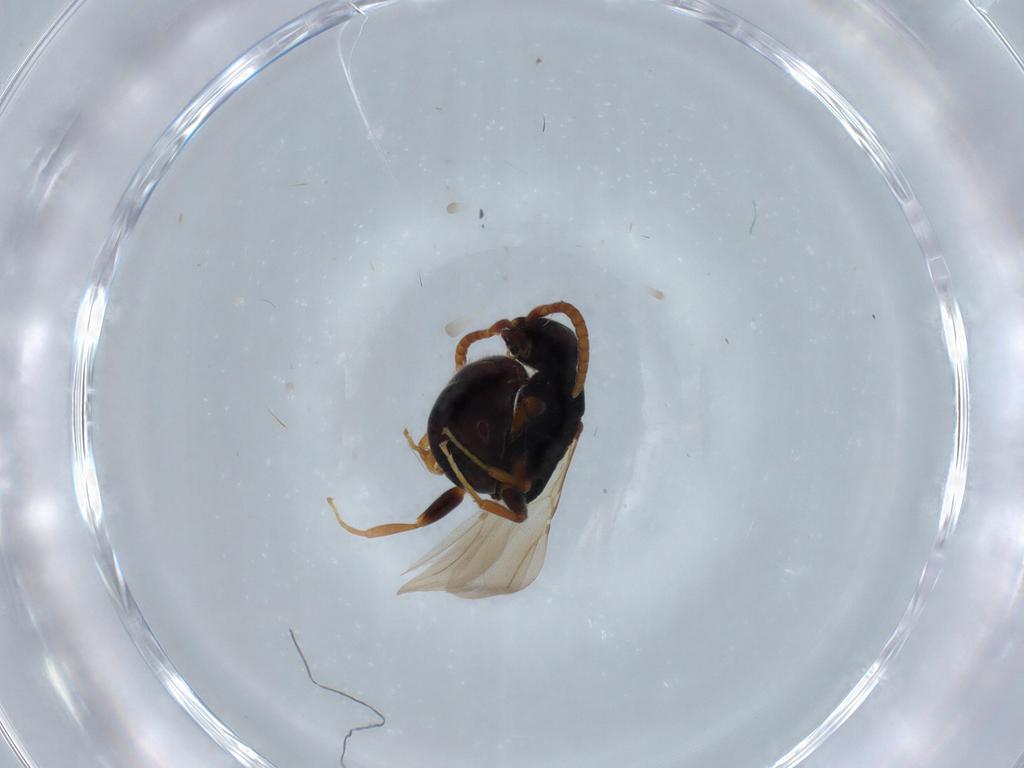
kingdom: Animalia
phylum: Arthropoda
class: Insecta
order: Hymenoptera
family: Bethylidae
